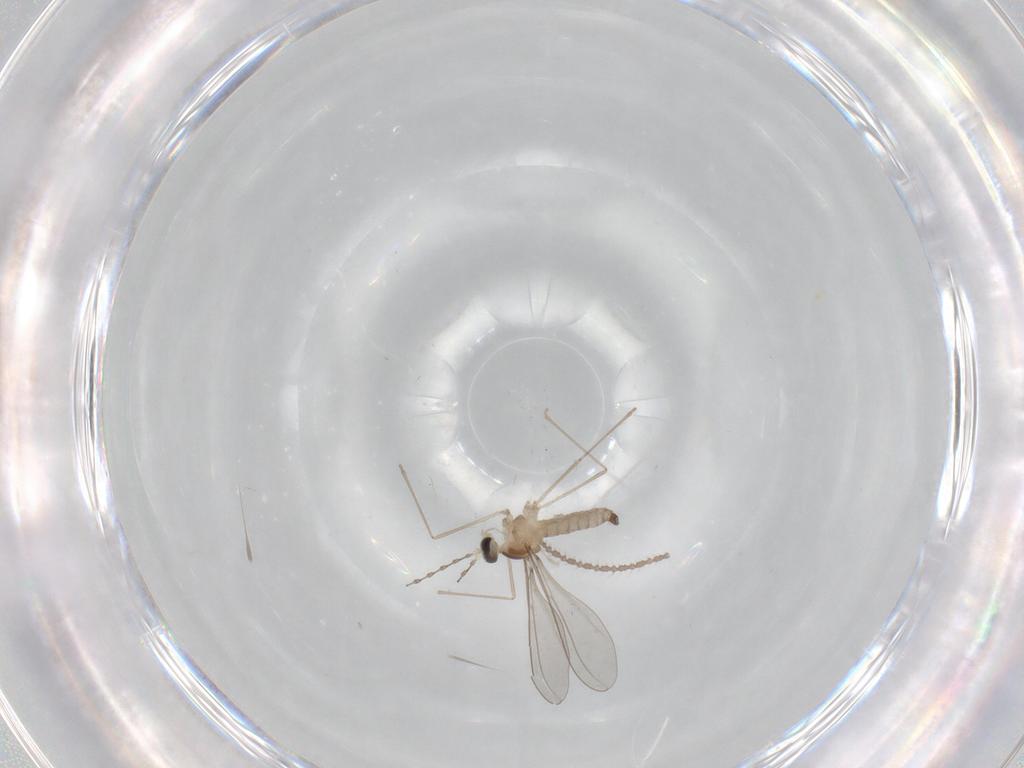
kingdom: Animalia
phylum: Arthropoda
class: Insecta
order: Diptera
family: Cecidomyiidae
